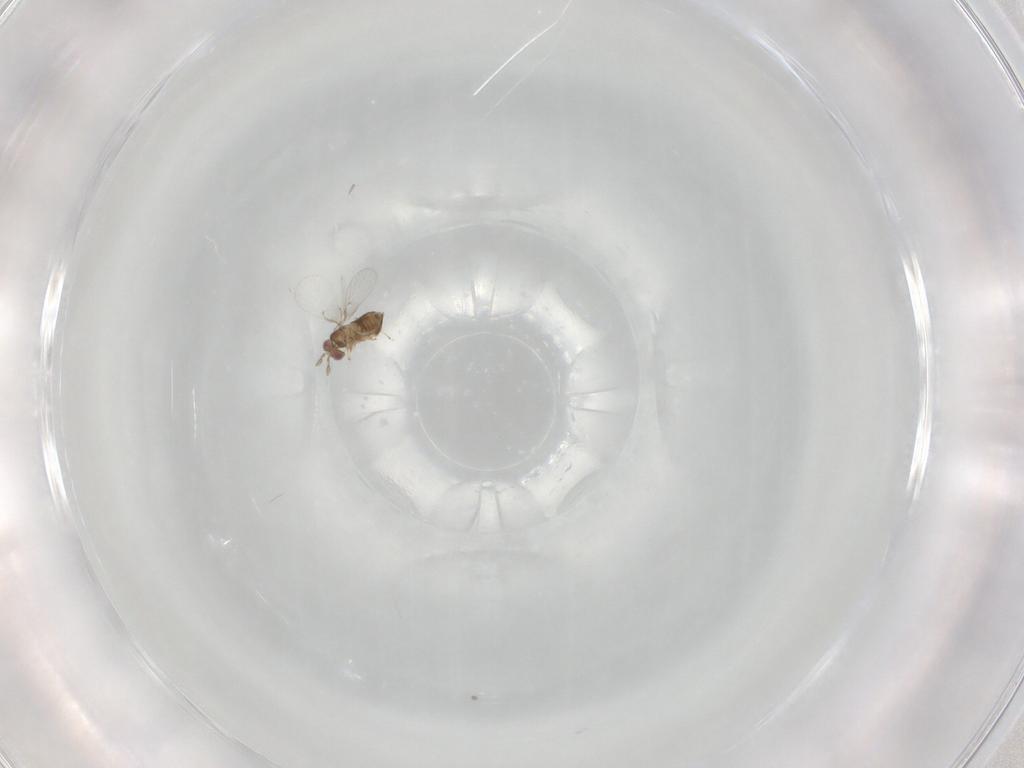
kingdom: Animalia
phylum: Arthropoda
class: Insecta
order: Hymenoptera
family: Trichogrammatidae
